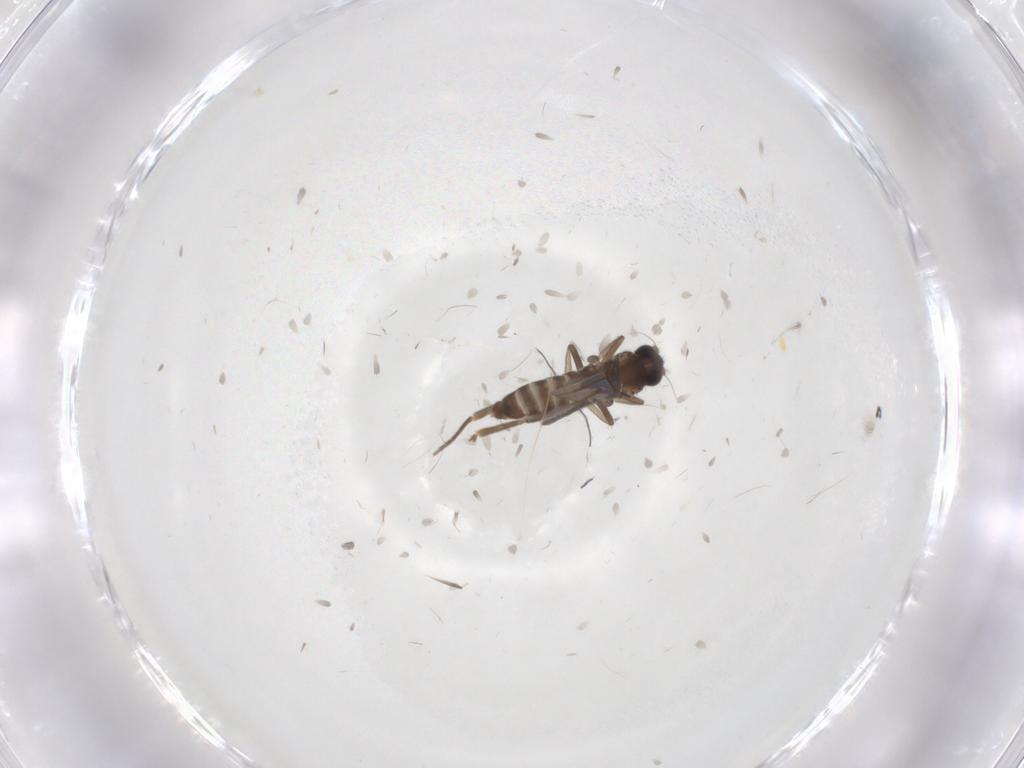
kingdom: Animalia
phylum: Arthropoda
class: Insecta
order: Diptera
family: Phoridae
